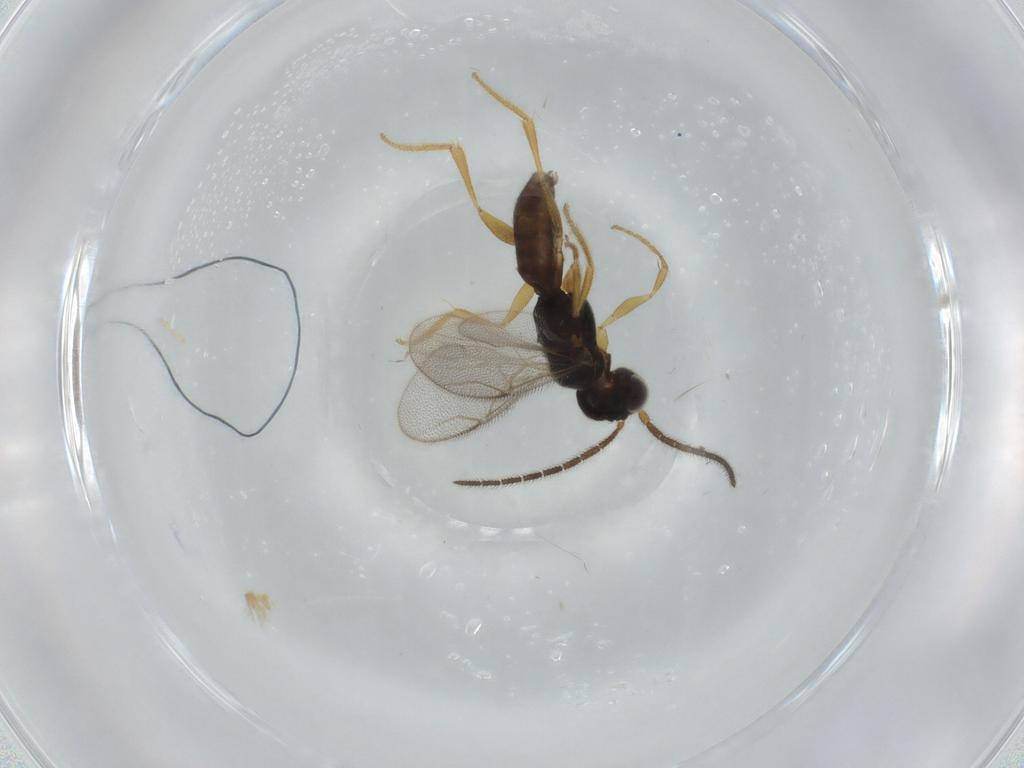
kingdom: Animalia
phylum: Arthropoda
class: Insecta
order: Hymenoptera
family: Dryinidae
